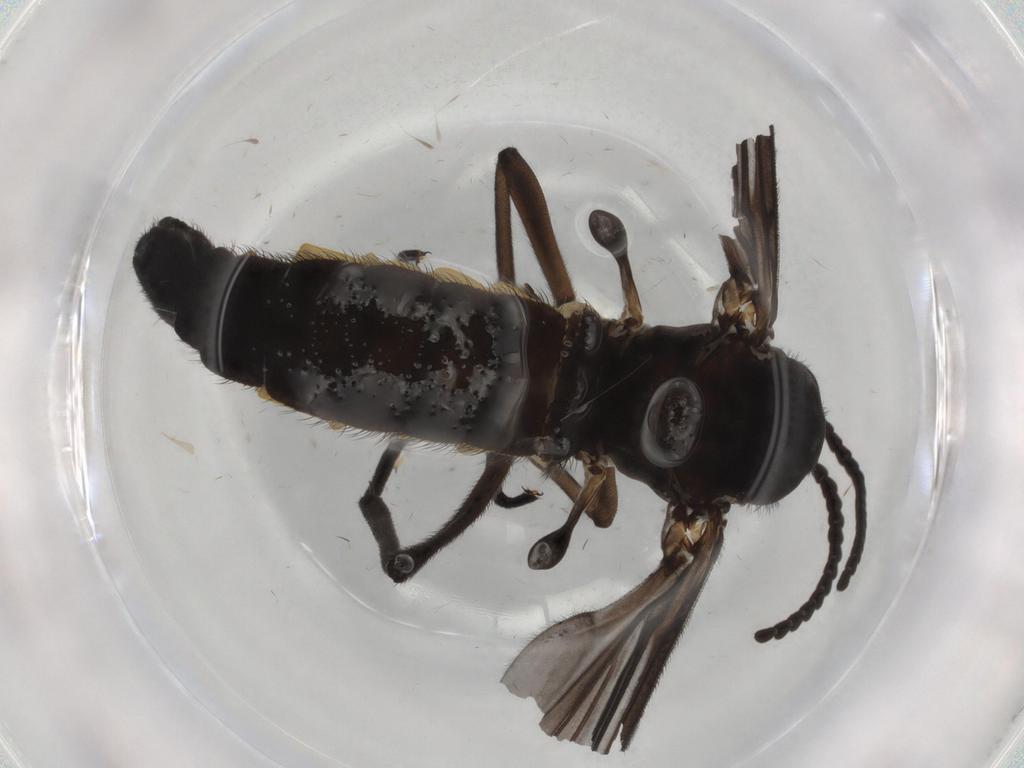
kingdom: Animalia
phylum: Arthropoda
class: Insecta
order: Diptera
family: Sciaridae
